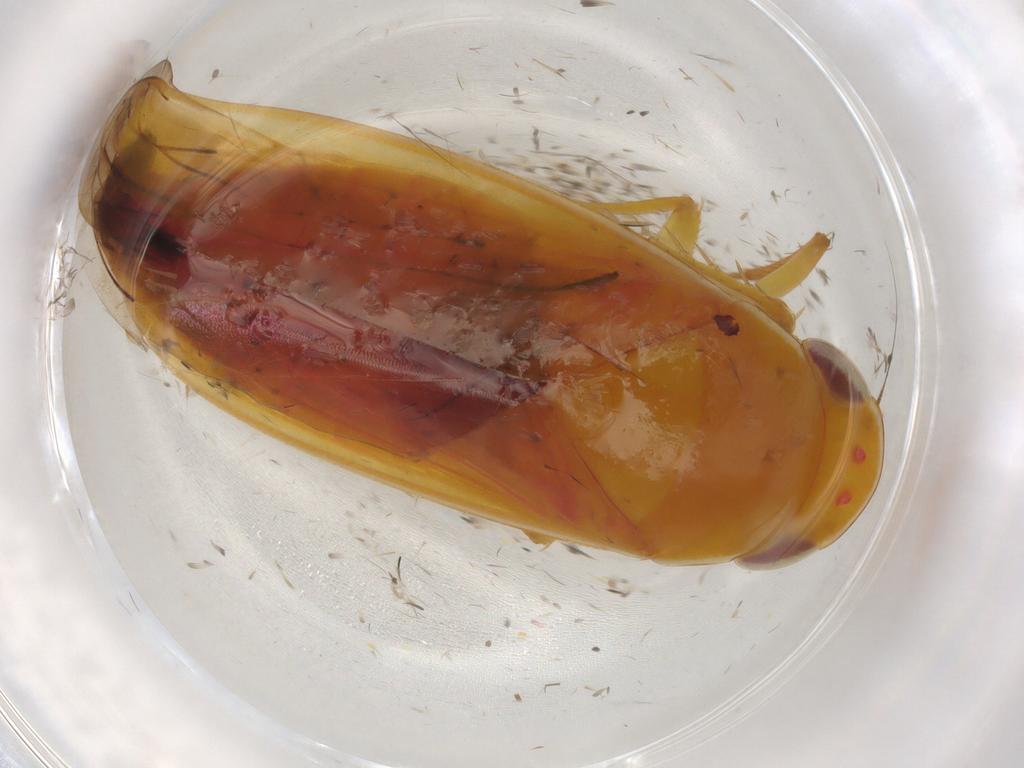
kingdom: Animalia
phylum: Arthropoda
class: Insecta
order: Hemiptera
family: Cicadellidae
